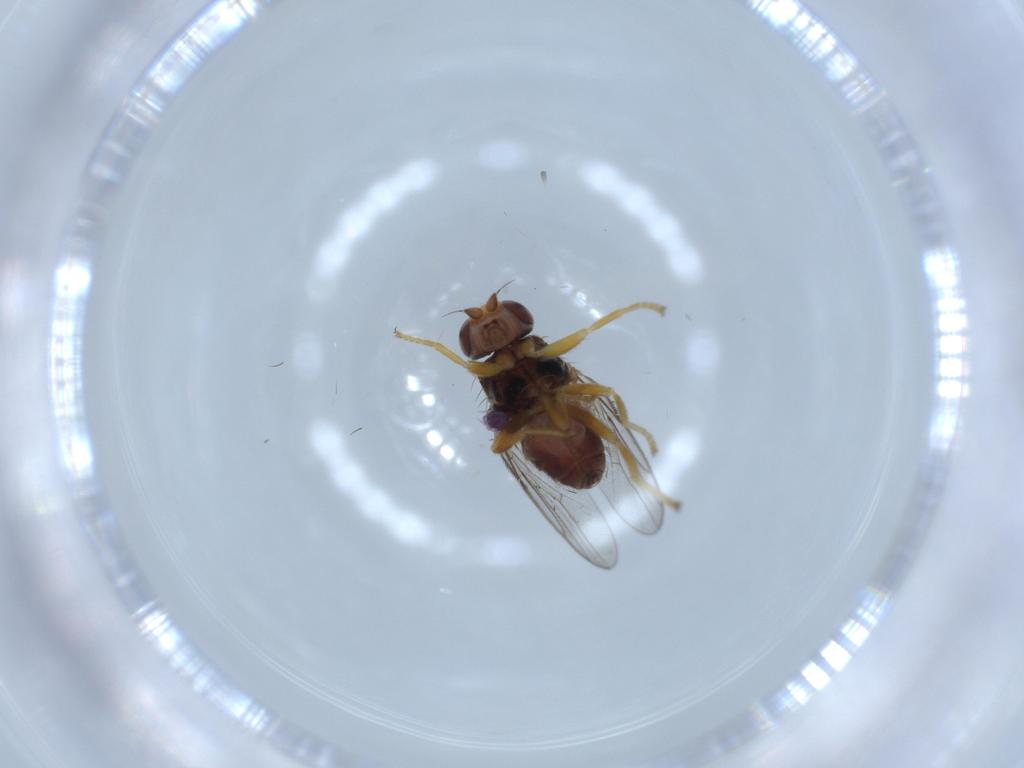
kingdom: Animalia
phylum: Arthropoda
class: Insecta
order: Diptera
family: Chloropidae
